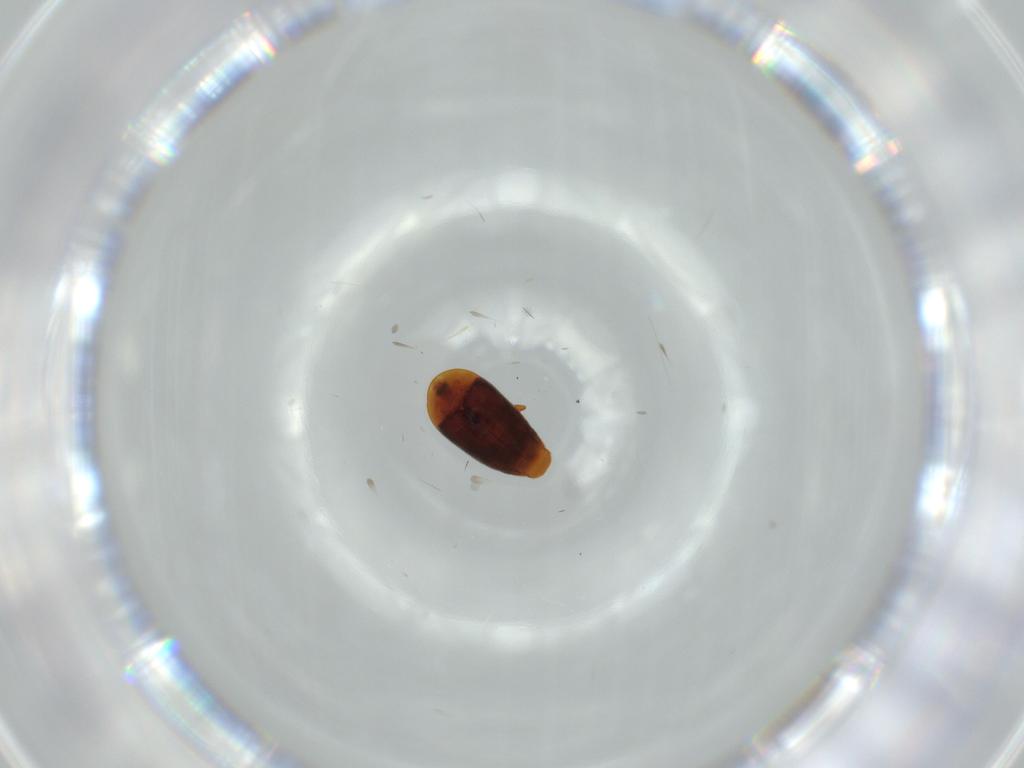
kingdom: Animalia
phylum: Arthropoda
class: Insecta
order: Coleoptera
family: Corylophidae
